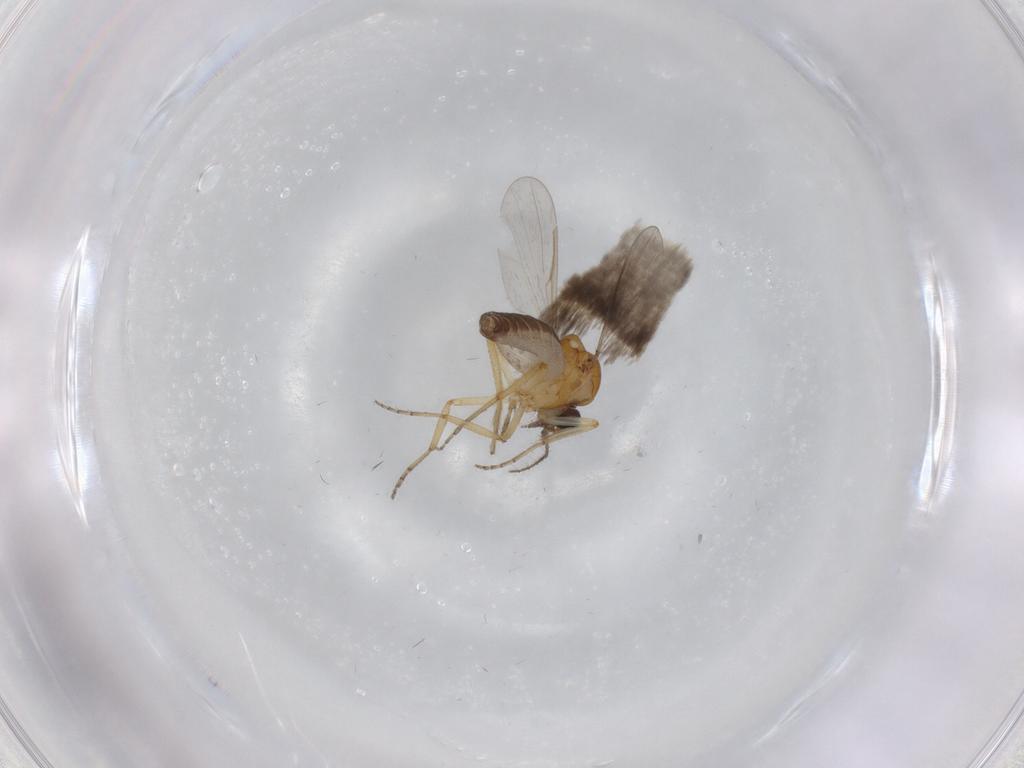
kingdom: Animalia
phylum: Arthropoda
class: Insecta
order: Diptera
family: Ceratopogonidae
